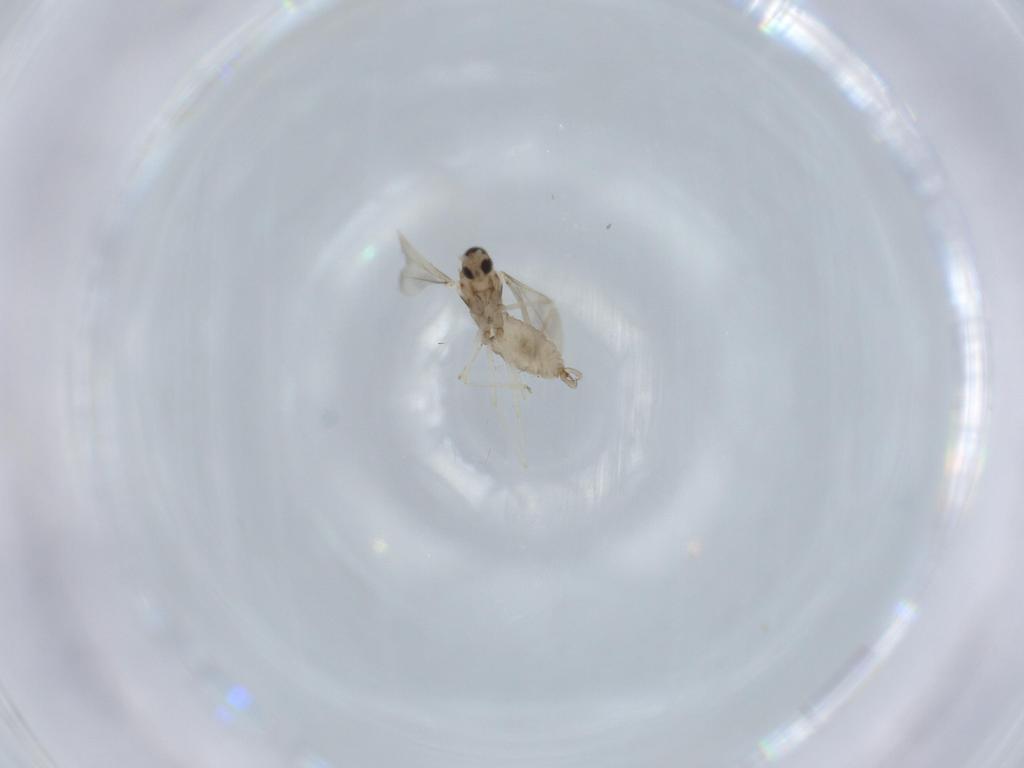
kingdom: Animalia
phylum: Arthropoda
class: Insecta
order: Diptera
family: Cecidomyiidae
